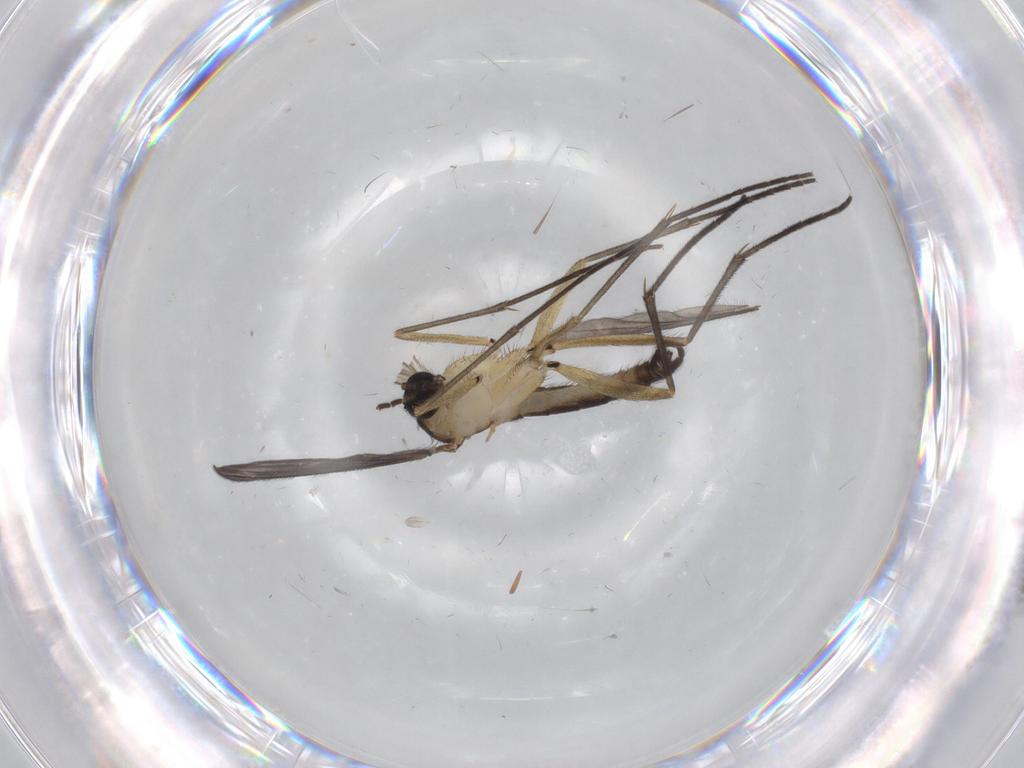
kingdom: Animalia
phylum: Arthropoda
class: Insecta
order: Diptera
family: Sciaridae
